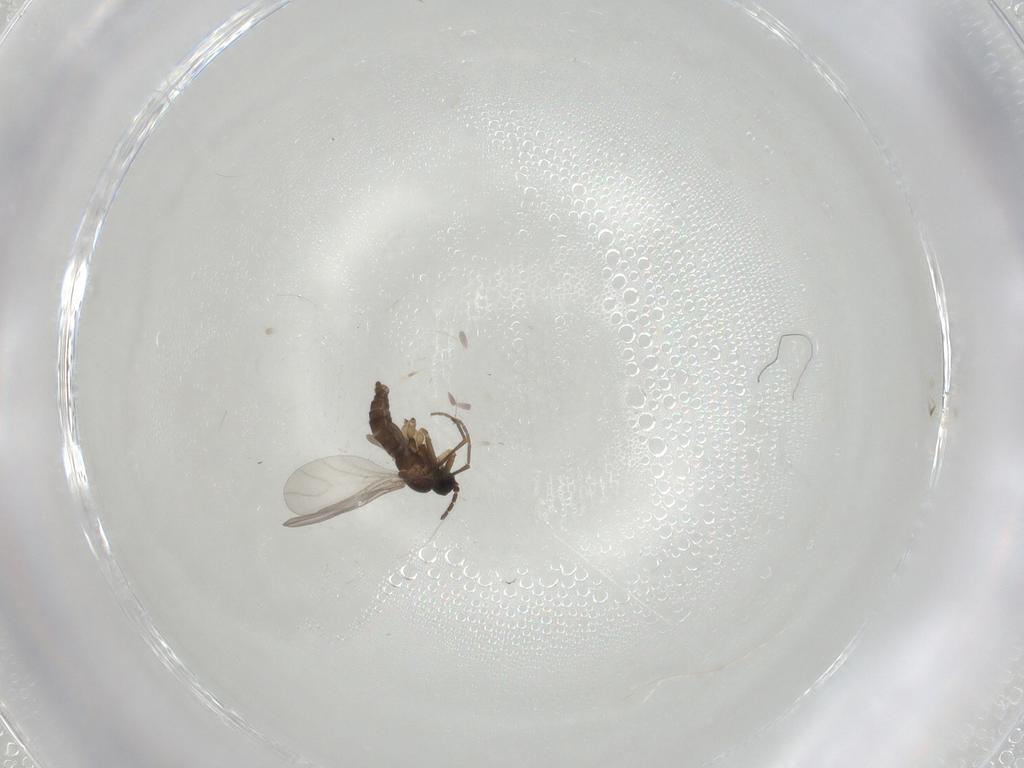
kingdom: Animalia
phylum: Arthropoda
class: Insecta
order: Diptera
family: Sciaridae
